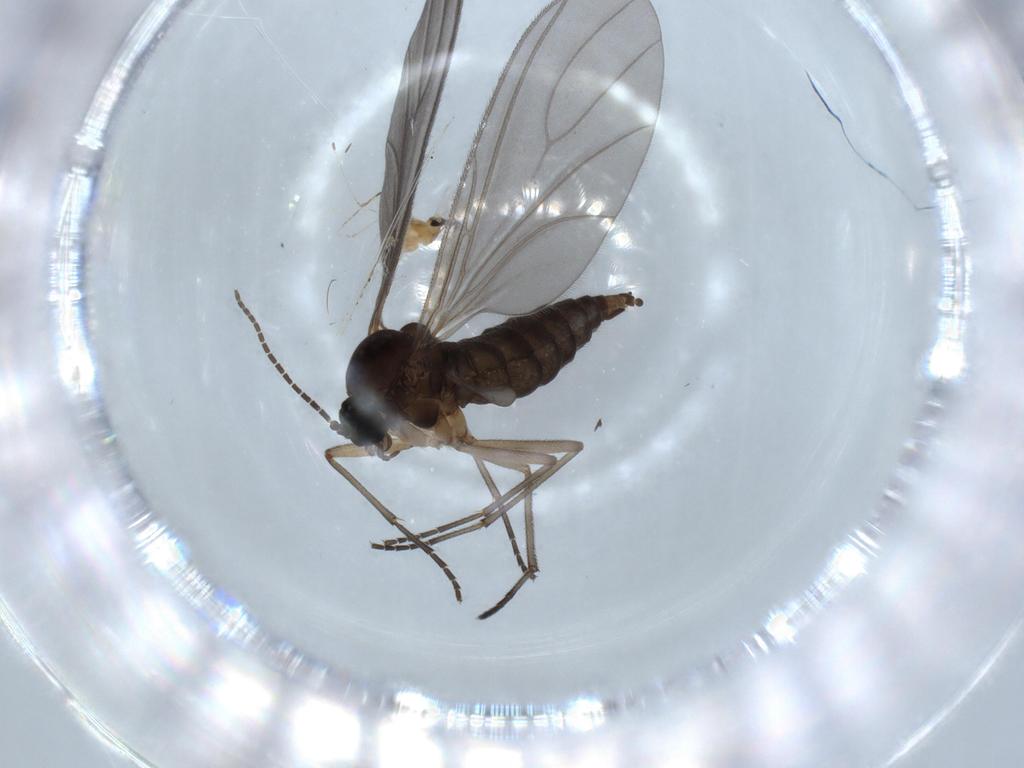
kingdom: Animalia
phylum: Arthropoda
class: Insecta
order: Diptera
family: Sciaridae
